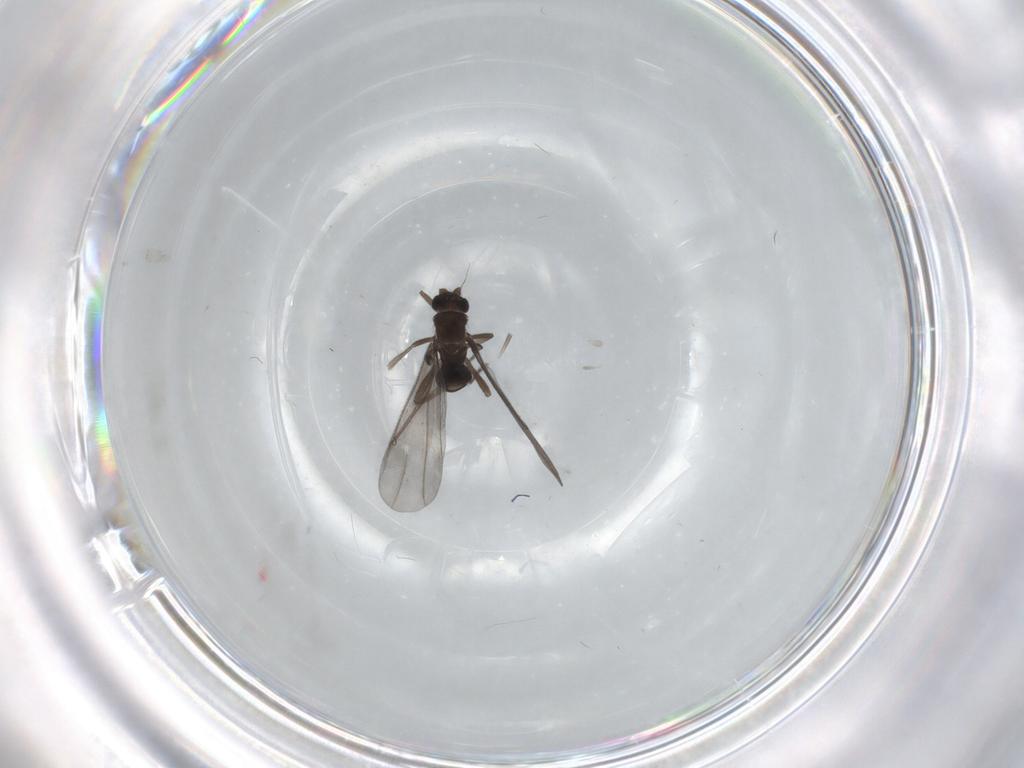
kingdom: Animalia
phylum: Arthropoda
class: Insecta
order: Diptera
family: Phoridae
